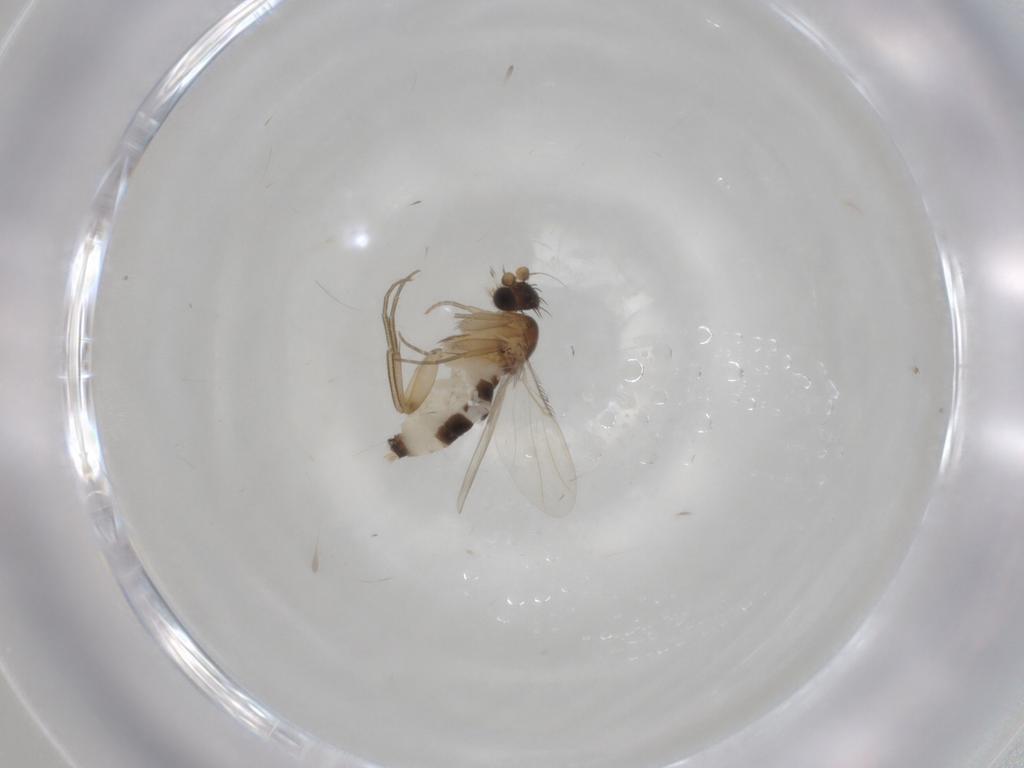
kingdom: Animalia
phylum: Arthropoda
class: Insecta
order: Diptera
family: Phoridae
